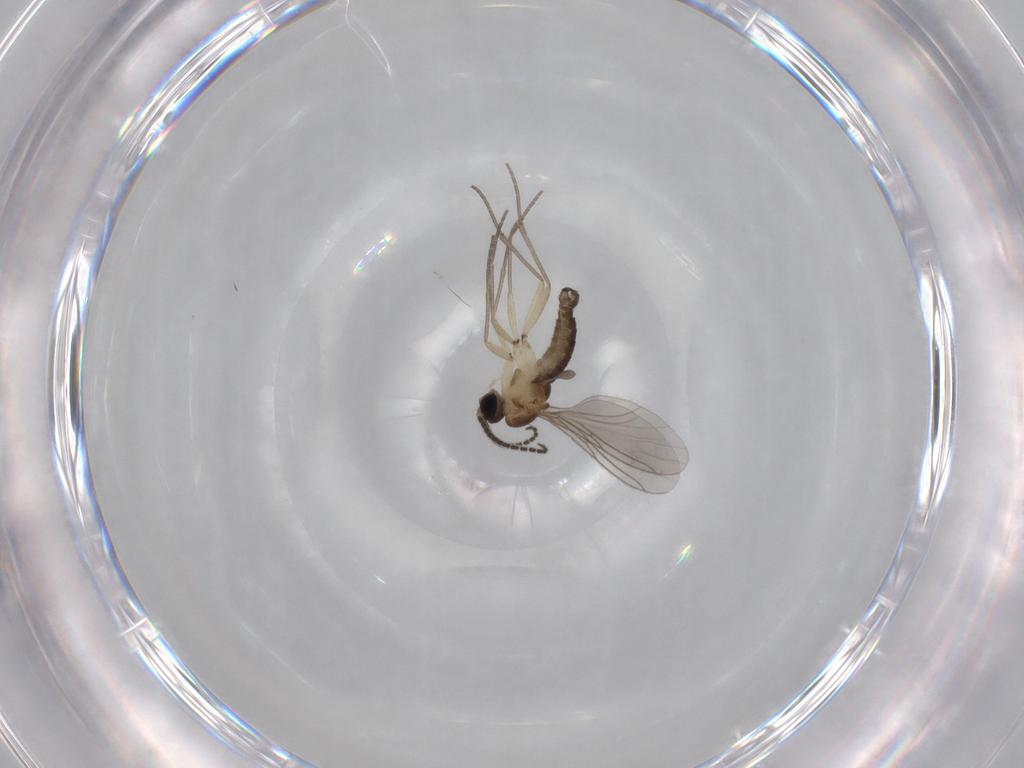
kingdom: Animalia
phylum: Arthropoda
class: Insecta
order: Diptera
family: Sciaridae
